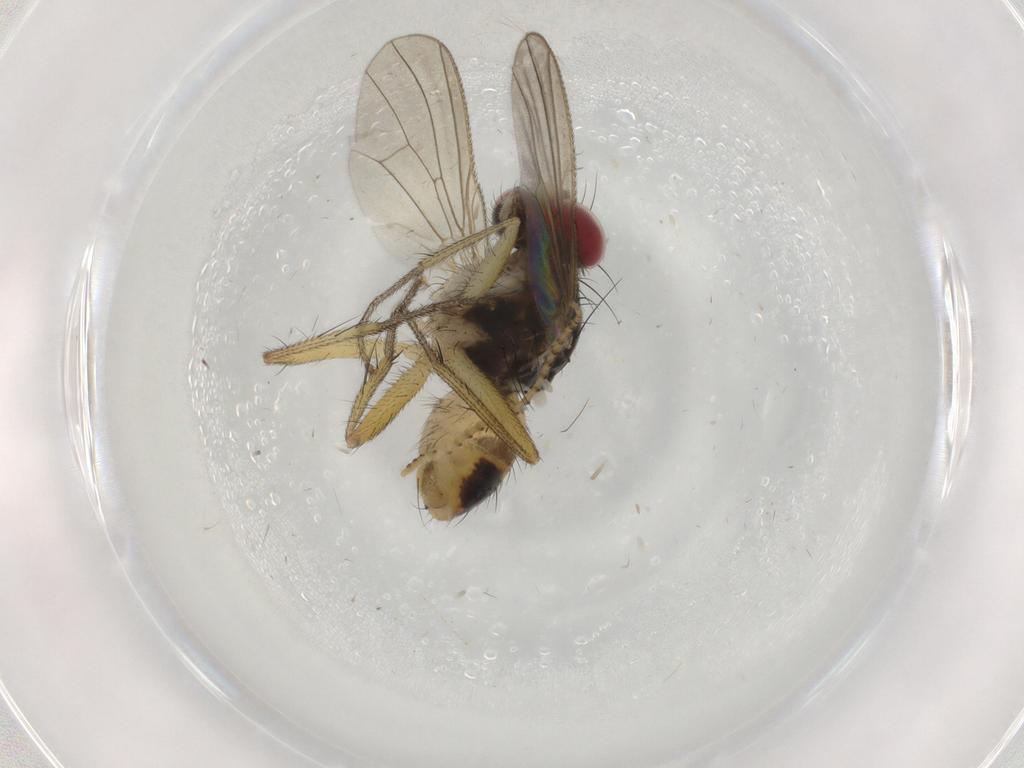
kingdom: Animalia
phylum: Arthropoda
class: Insecta
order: Diptera
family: Muscidae
